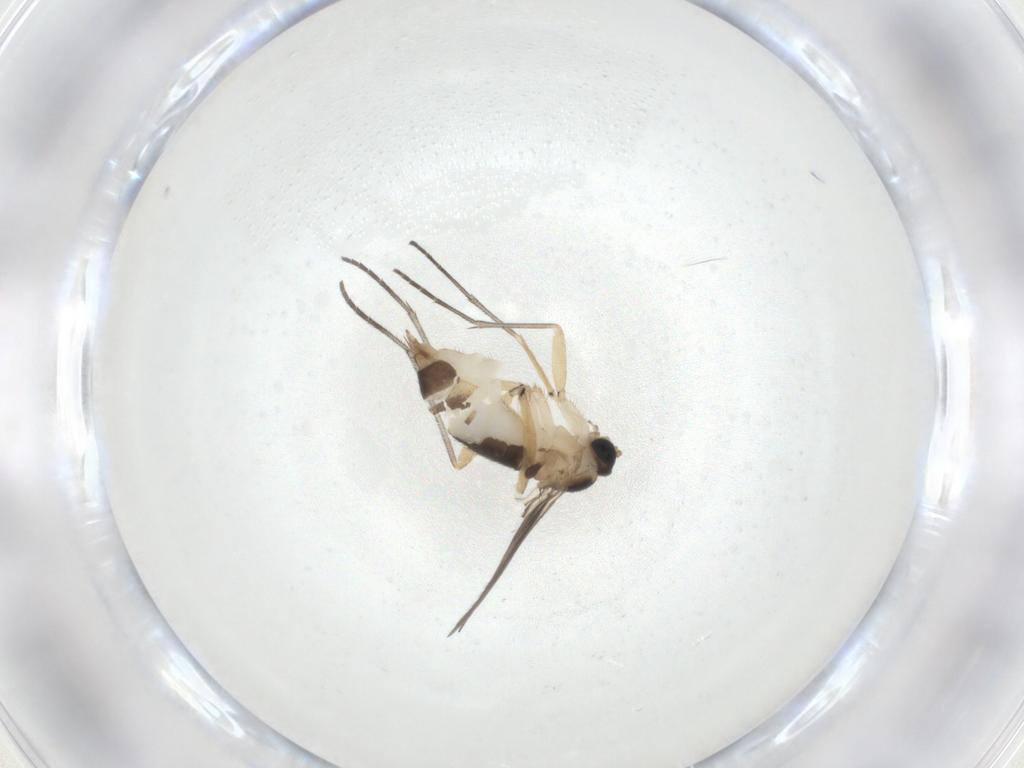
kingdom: Animalia
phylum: Arthropoda
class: Insecta
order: Diptera
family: Sciaridae
